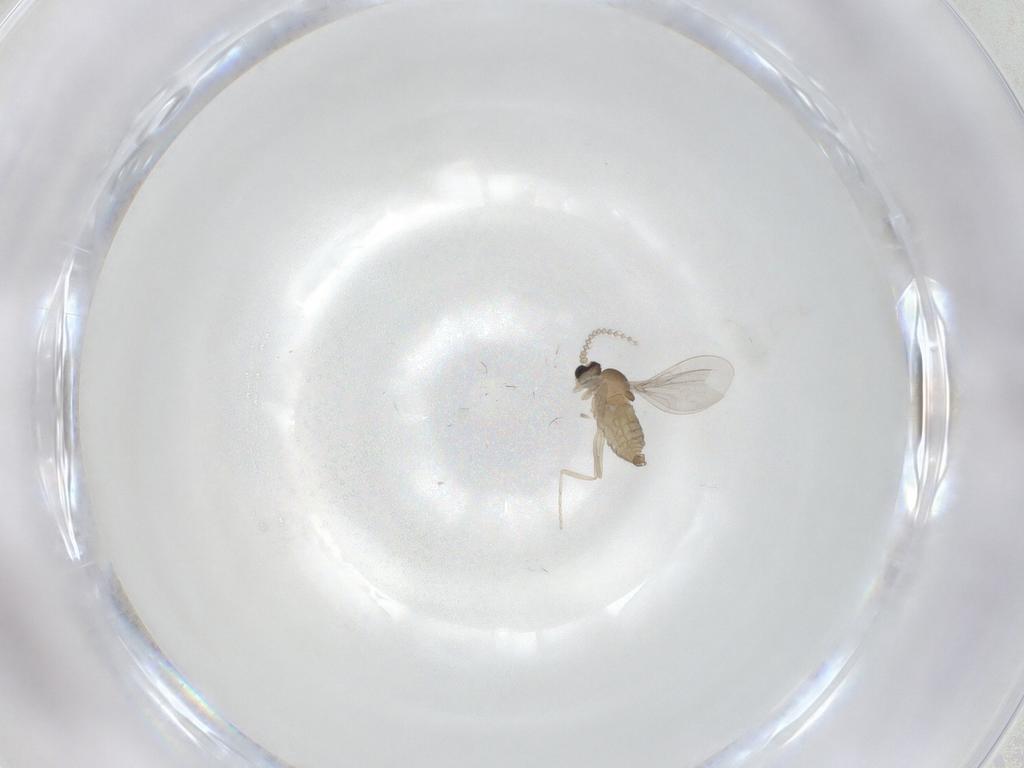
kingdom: Animalia
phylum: Arthropoda
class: Insecta
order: Diptera
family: Cecidomyiidae
